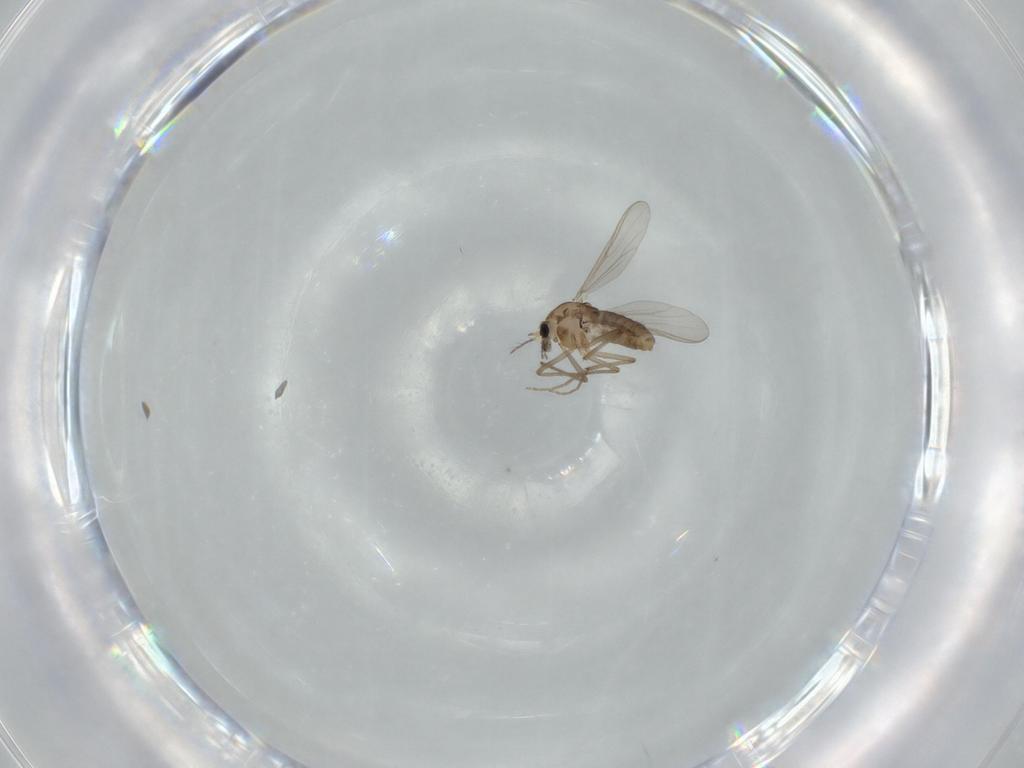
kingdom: Animalia
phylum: Arthropoda
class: Insecta
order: Diptera
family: Chironomidae
